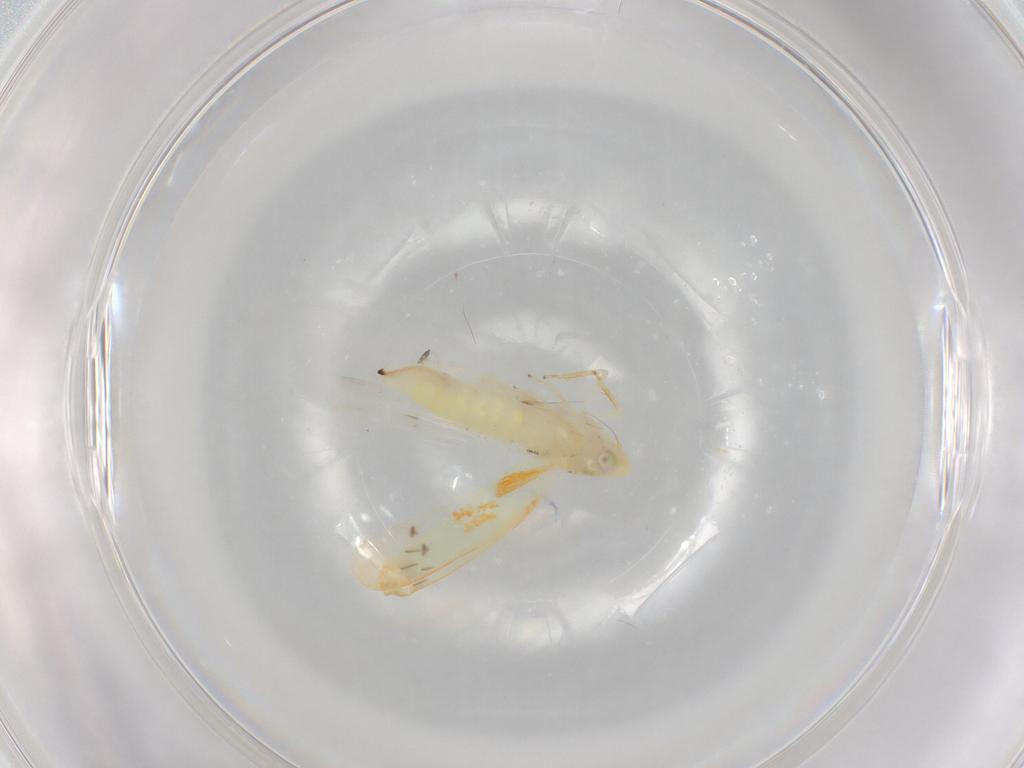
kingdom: Animalia
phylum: Arthropoda
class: Insecta
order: Hemiptera
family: Cicadellidae
